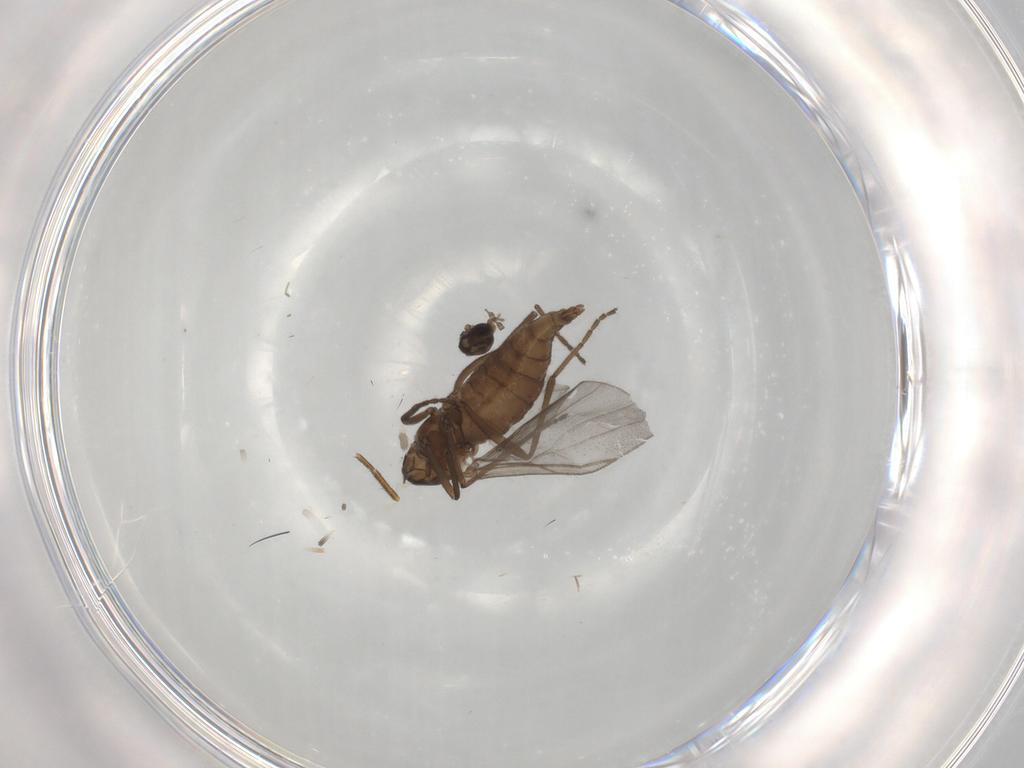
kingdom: Animalia
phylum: Arthropoda
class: Insecta
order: Diptera
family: Cecidomyiidae
